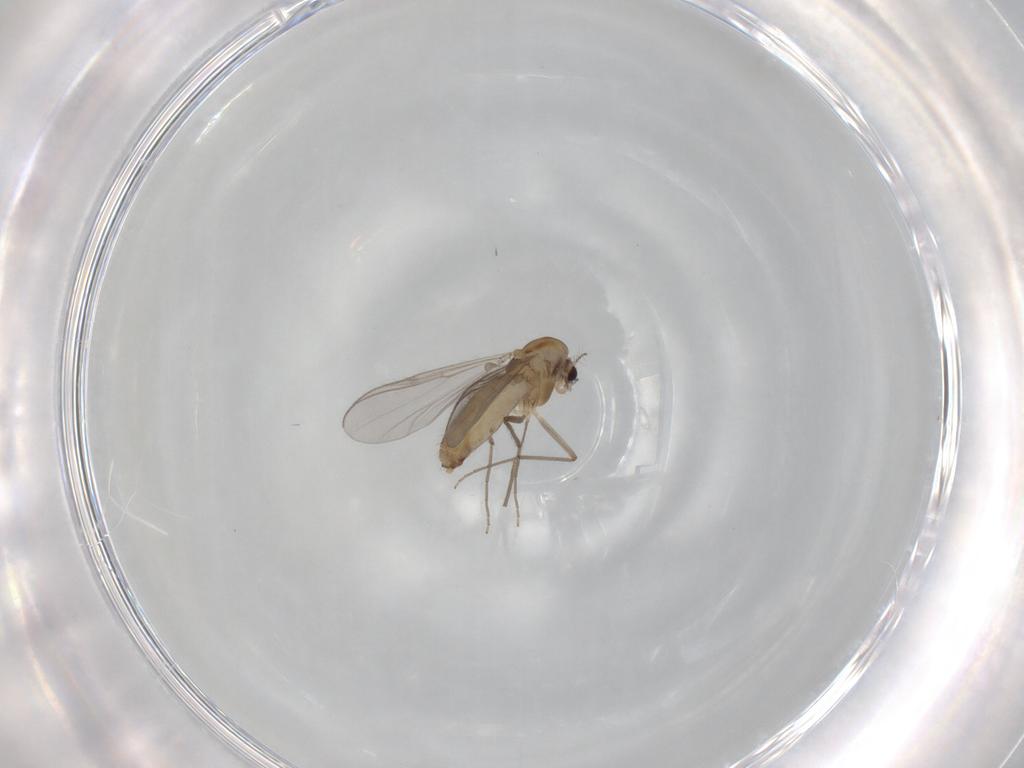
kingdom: Animalia
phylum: Arthropoda
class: Insecta
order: Diptera
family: Chironomidae
